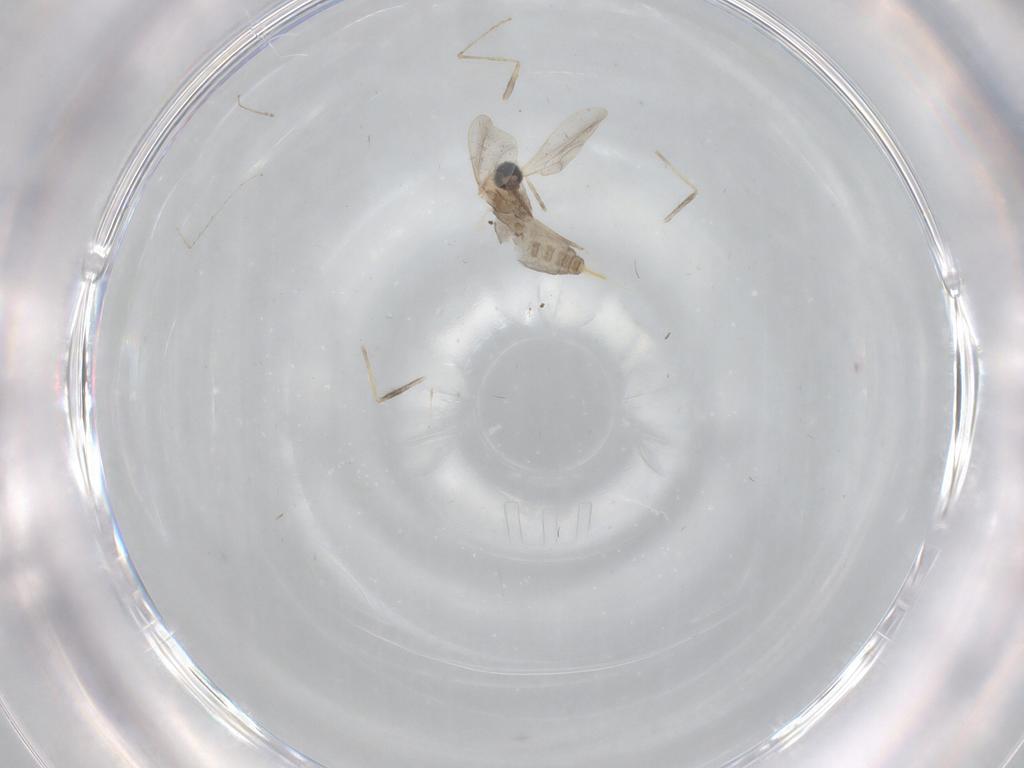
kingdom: Animalia
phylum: Arthropoda
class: Insecta
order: Diptera
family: Cecidomyiidae
